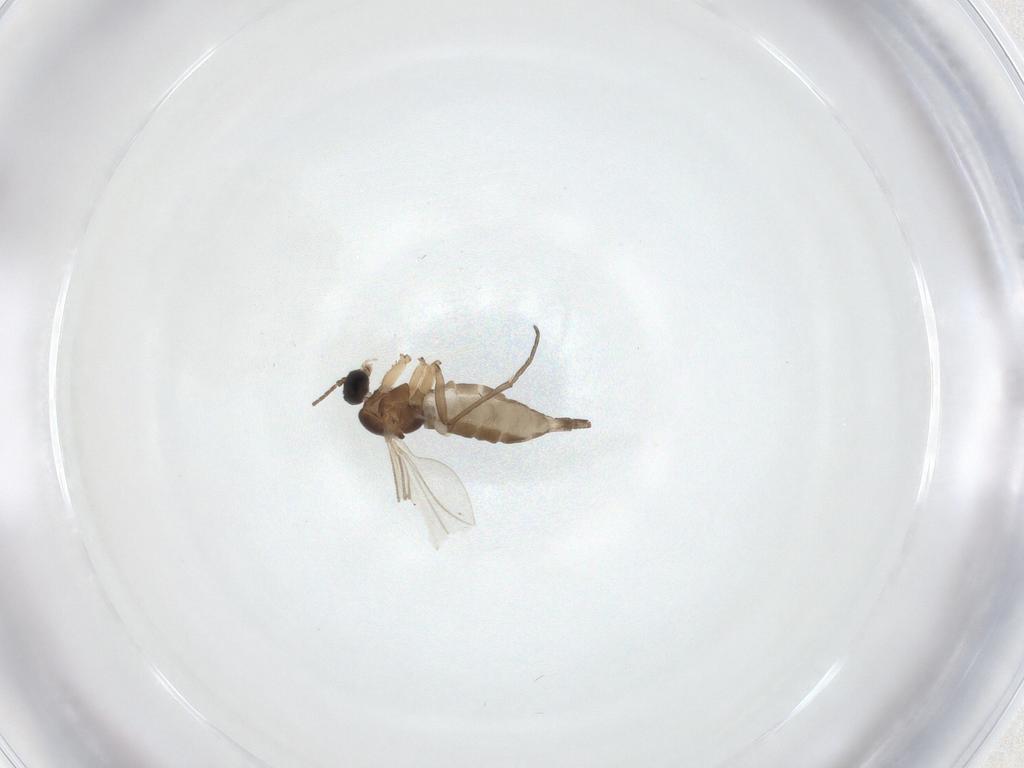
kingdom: Animalia
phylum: Arthropoda
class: Insecta
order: Diptera
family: Sciaridae
